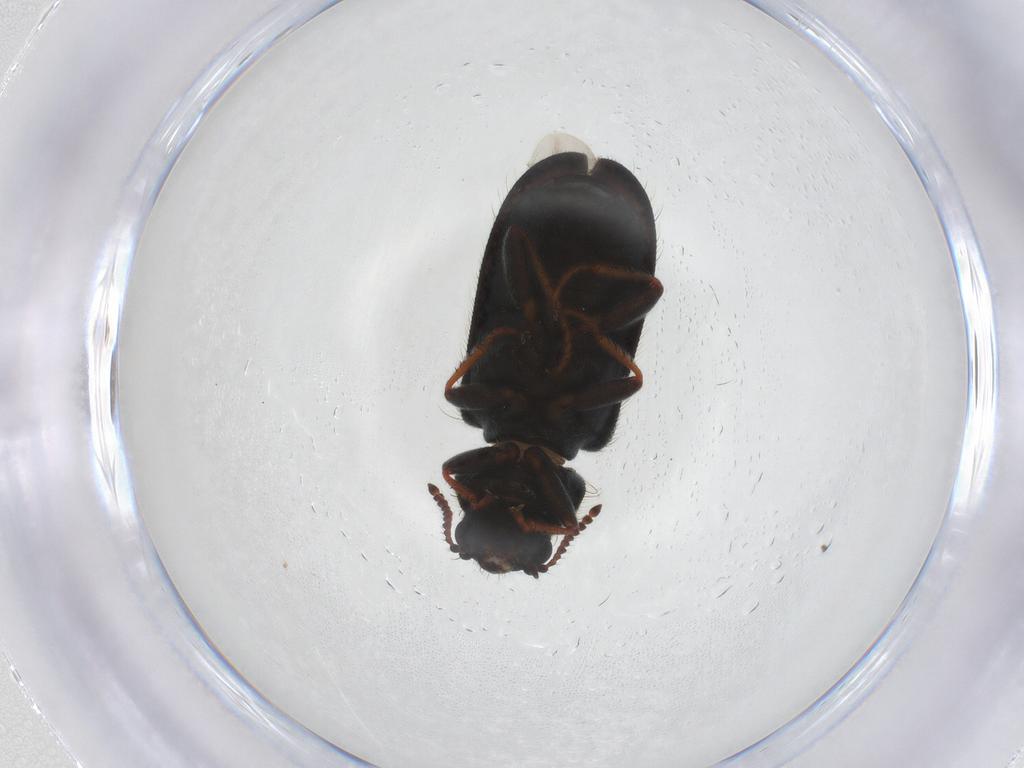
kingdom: Animalia
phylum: Arthropoda
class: Insecta
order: Coleoptera
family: Melyridae
